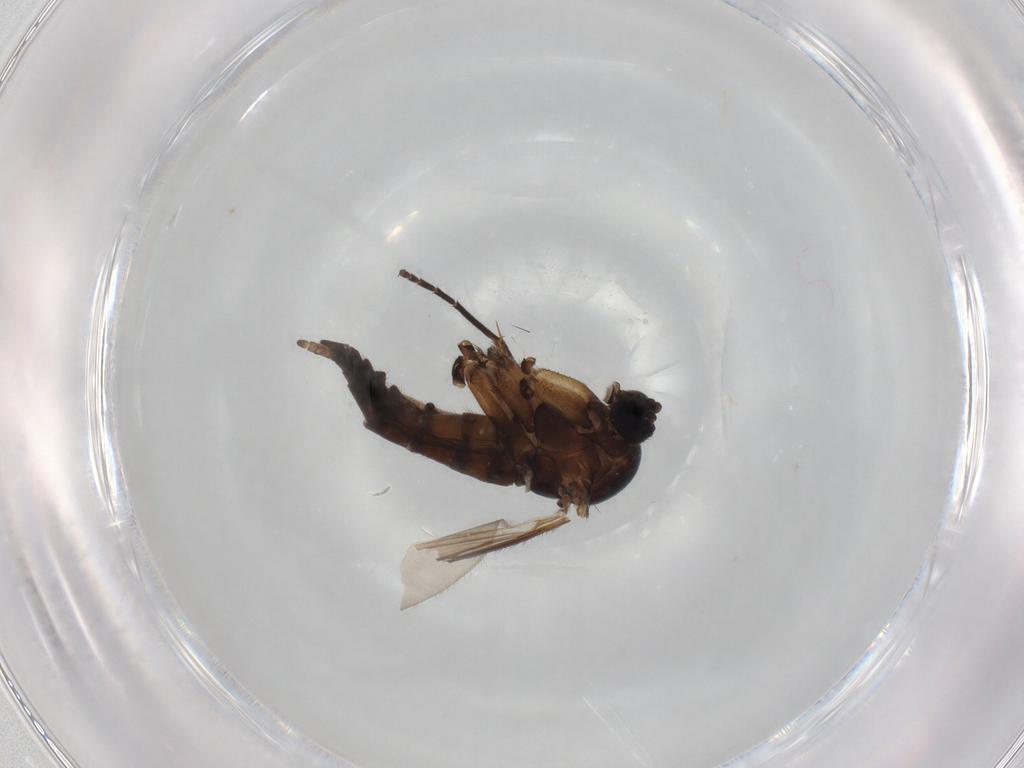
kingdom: Animalia
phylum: Arthropoda
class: Insecta
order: Diptera
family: Sciaridae
